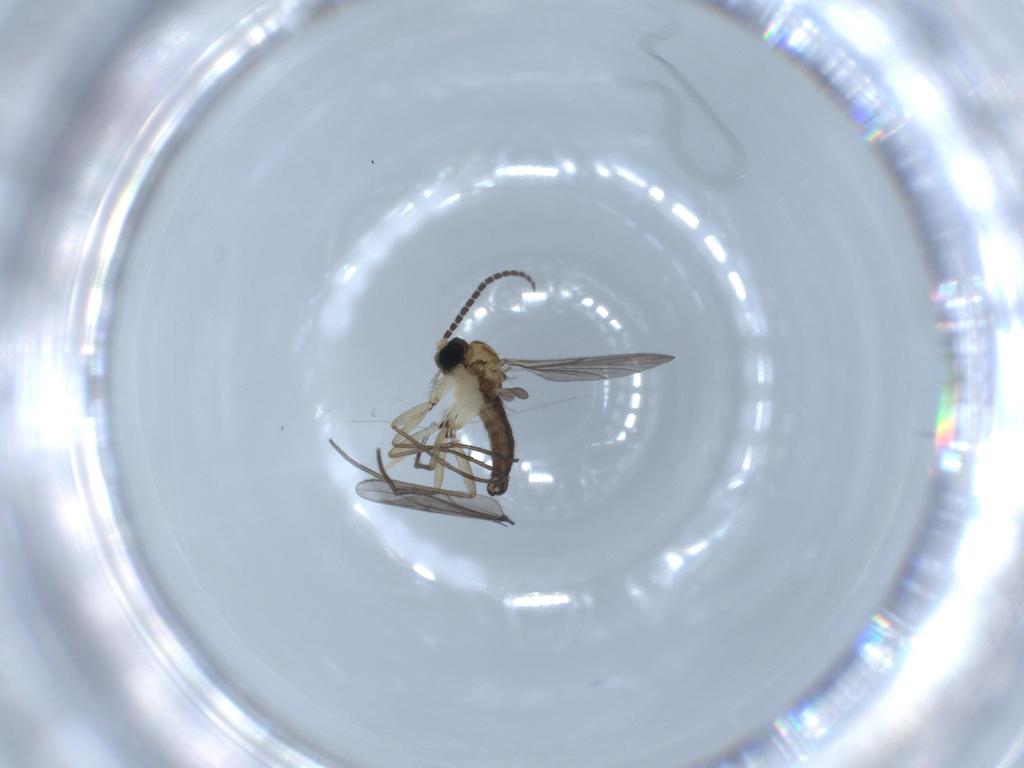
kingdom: Animalia
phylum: Arthropoda
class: Insecta
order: Diptera
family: Sciaridae
